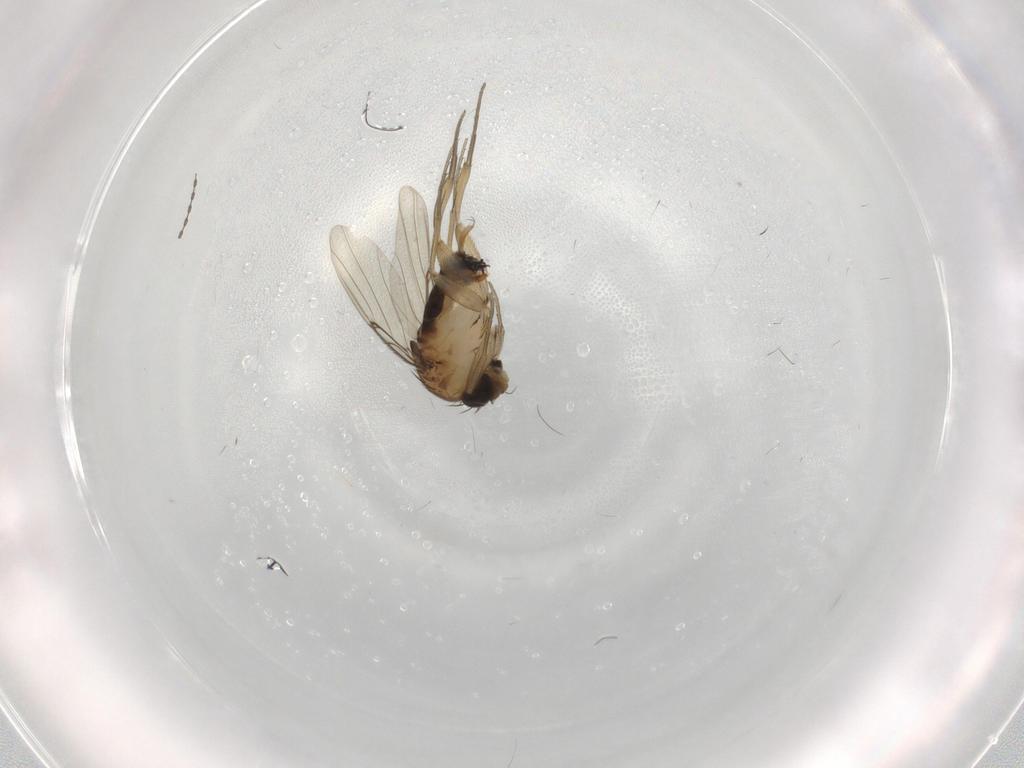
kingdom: Animalia
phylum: Arthropoda
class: Insecta
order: Diptera
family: Phoridae
